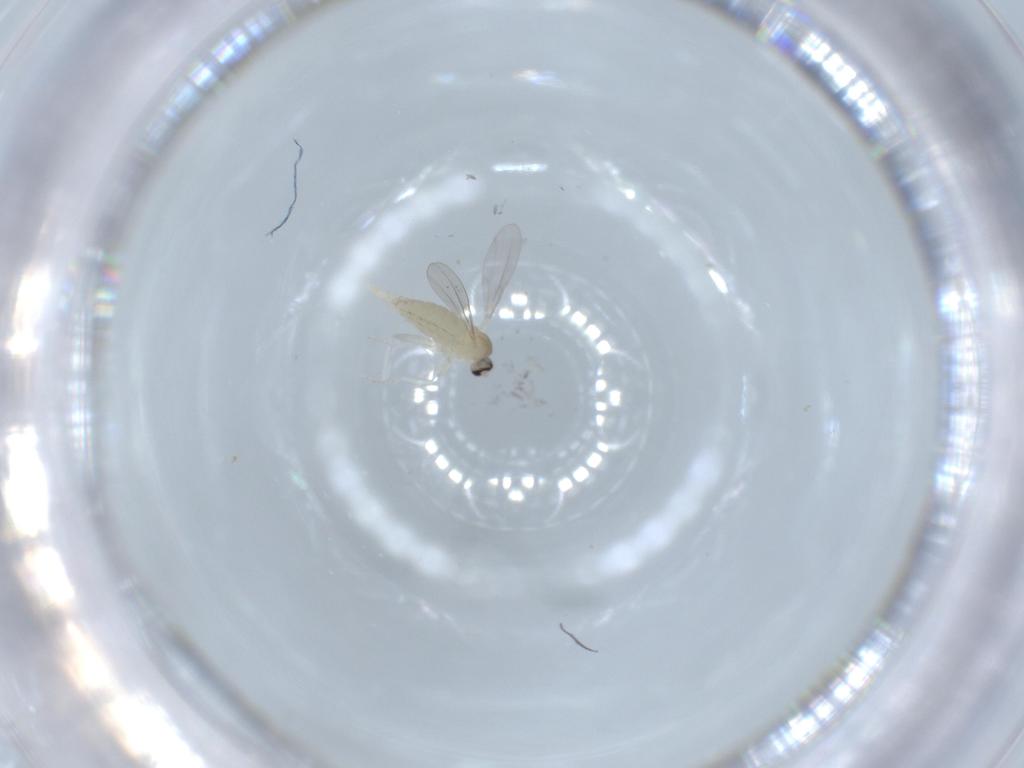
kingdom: Animalia
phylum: Arthropoda
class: Insecta
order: Diptera
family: Cecidomyiidae
